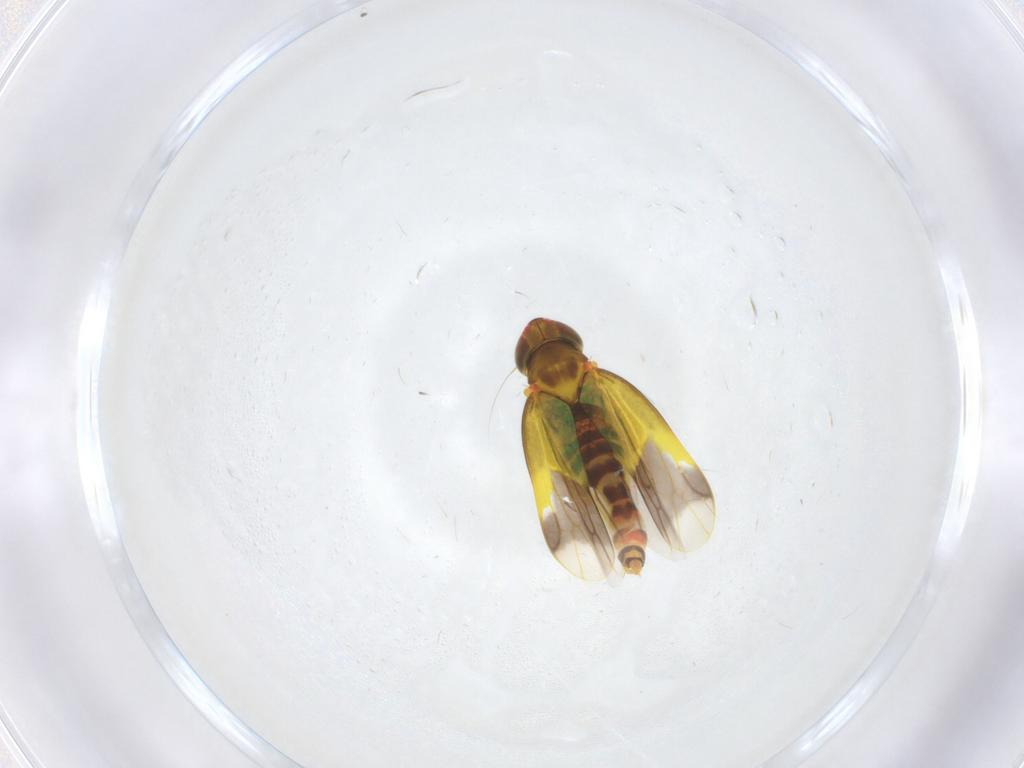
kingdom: Animalia
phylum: Arthropoda
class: Insecta
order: Hemiptera
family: Cicadellidae
